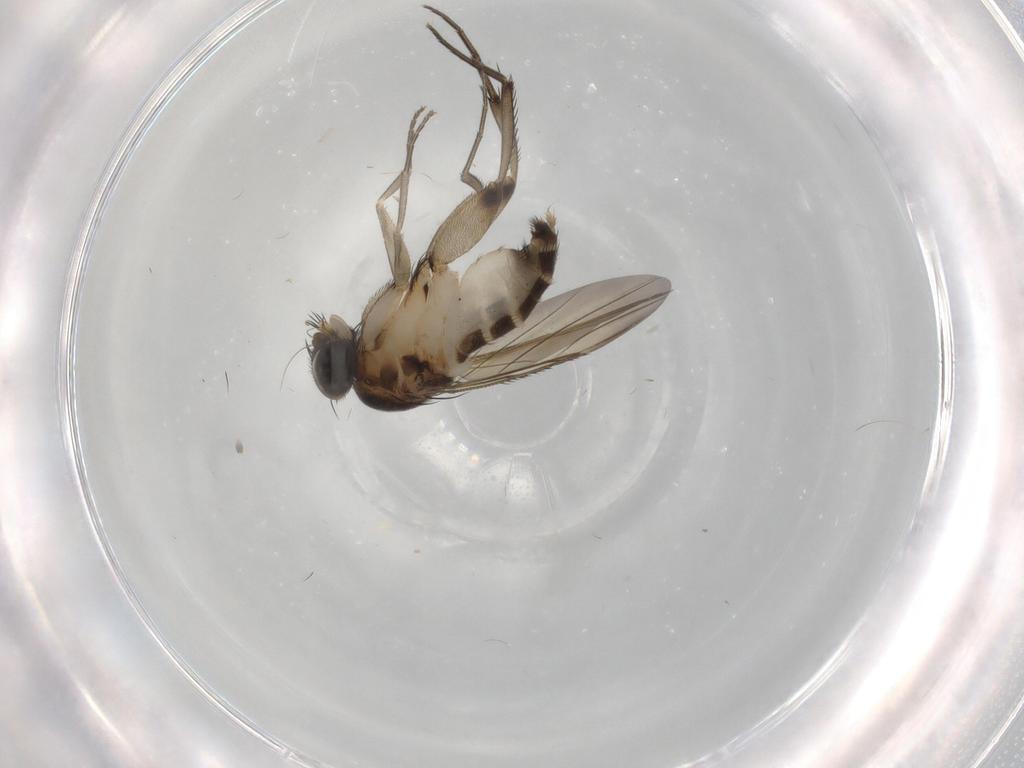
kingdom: Animalia
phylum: Arthropoda
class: Insecta
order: Diptera
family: Phoridae
